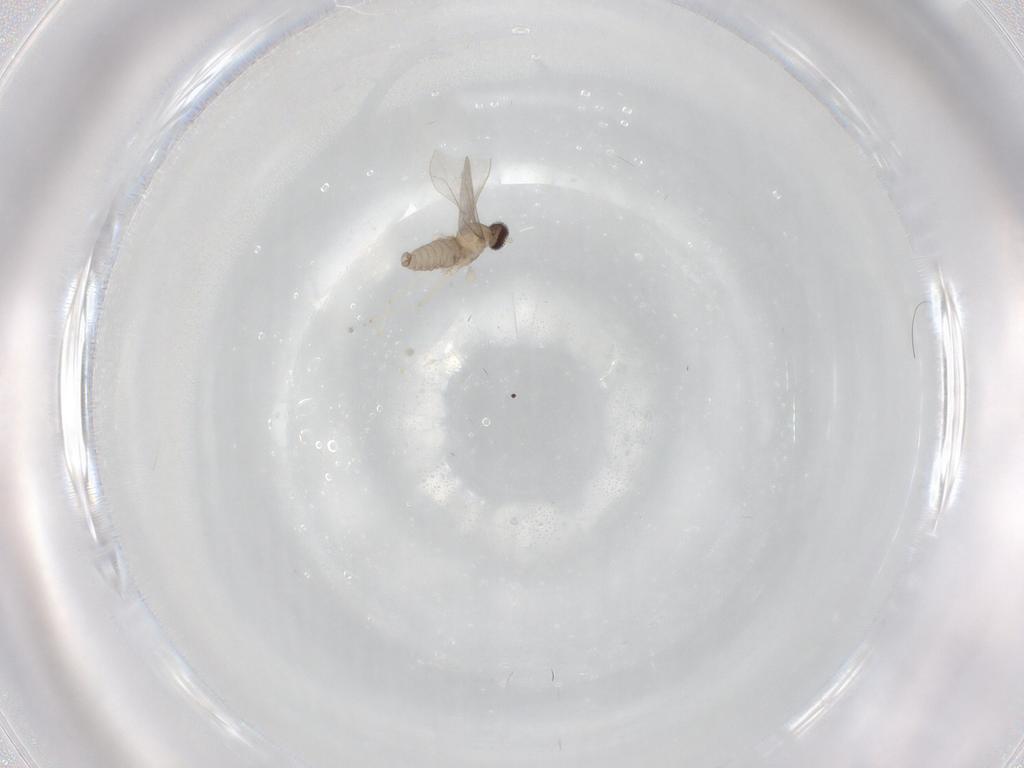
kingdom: Animalia
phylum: Arthropoda
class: Insecta
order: Diptera
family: Cecidomyiidae
